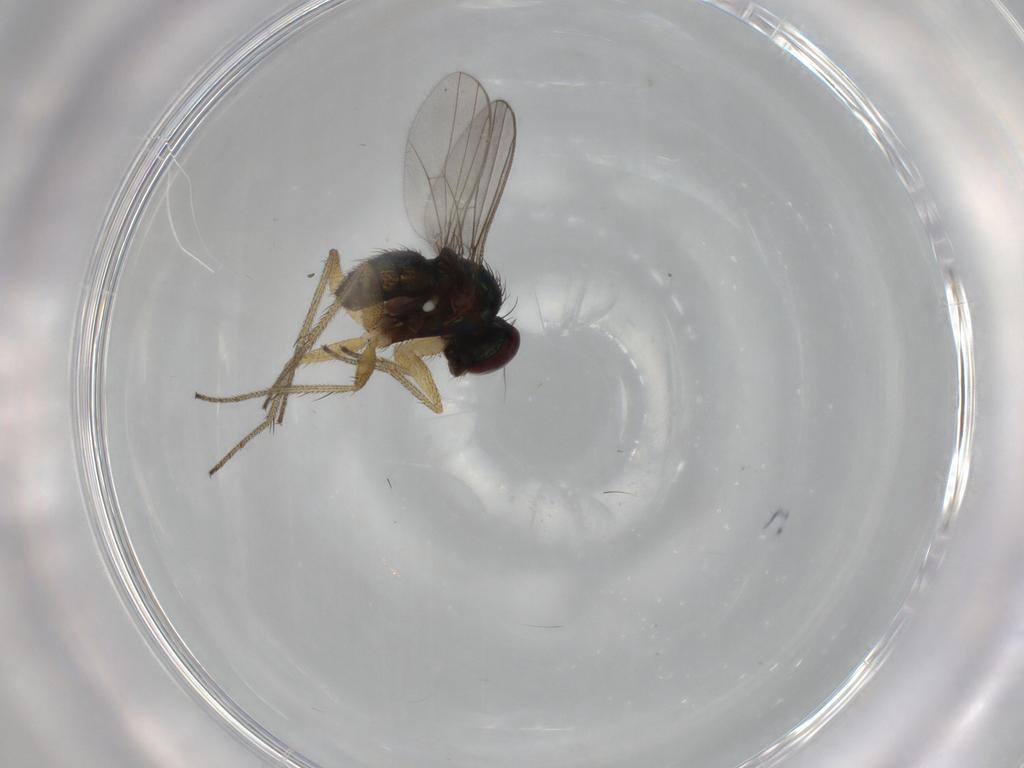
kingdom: Animalia
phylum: Arthropoda
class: Insecta
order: Diptera
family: Dolichopodidae
